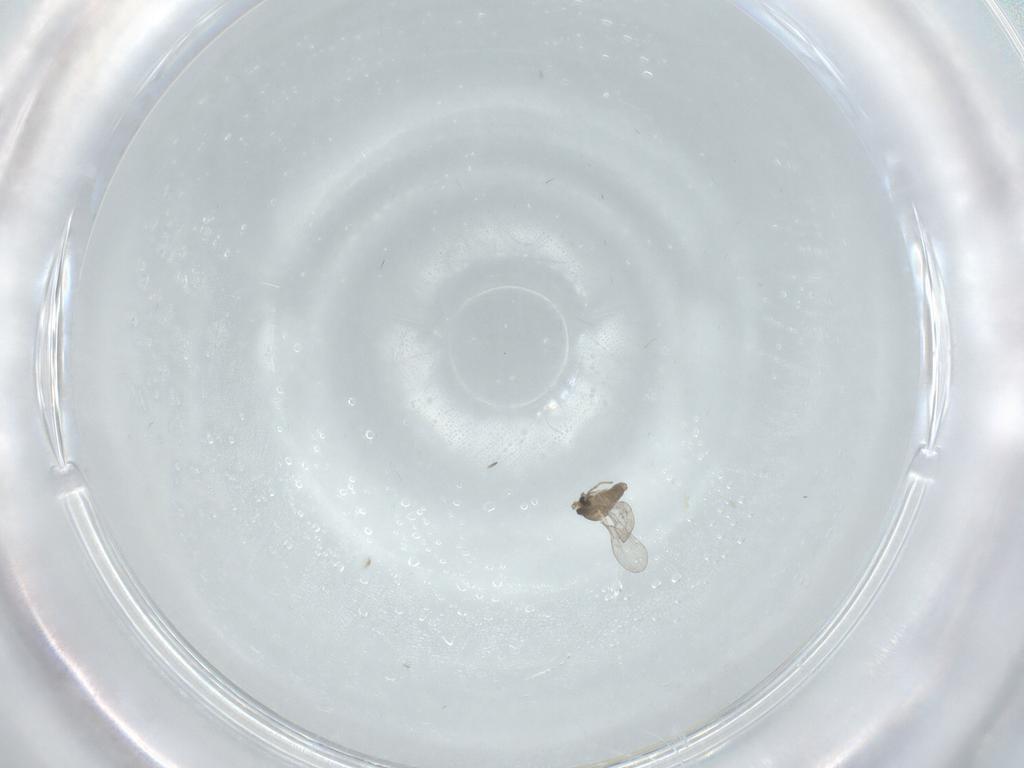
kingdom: Animalia
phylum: Arthropoda
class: Insecta
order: Diptera
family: Cecidomyiidae
